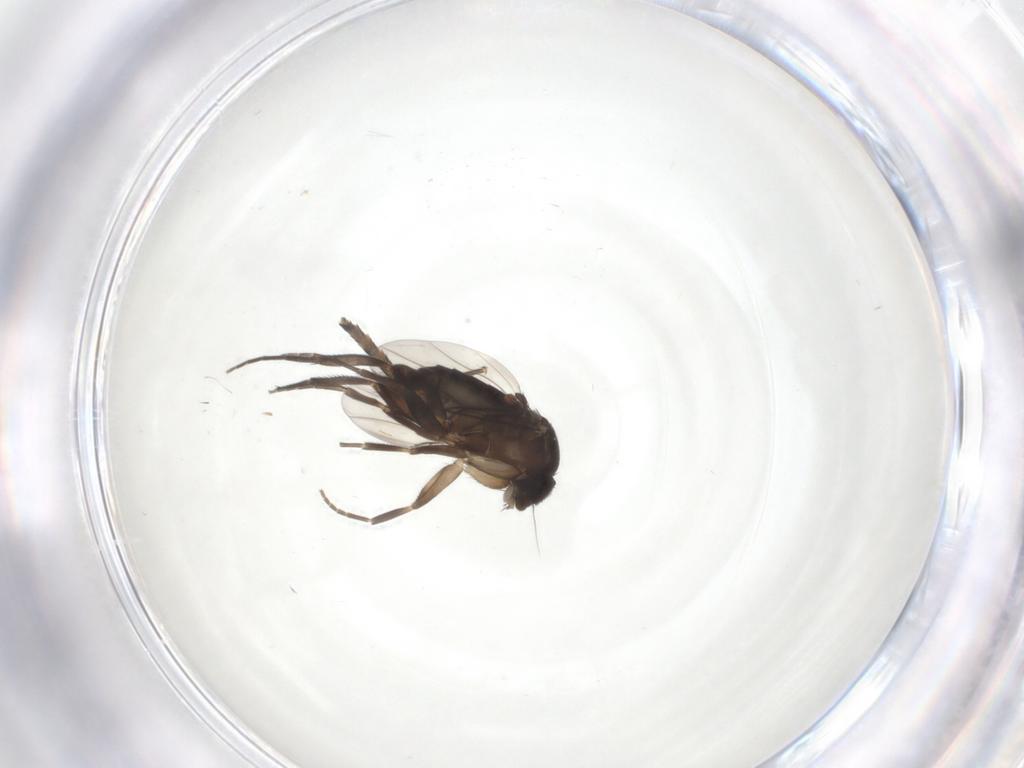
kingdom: Animalia
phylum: Arthropoda
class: Insecta
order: Diptera
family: Phoridae
